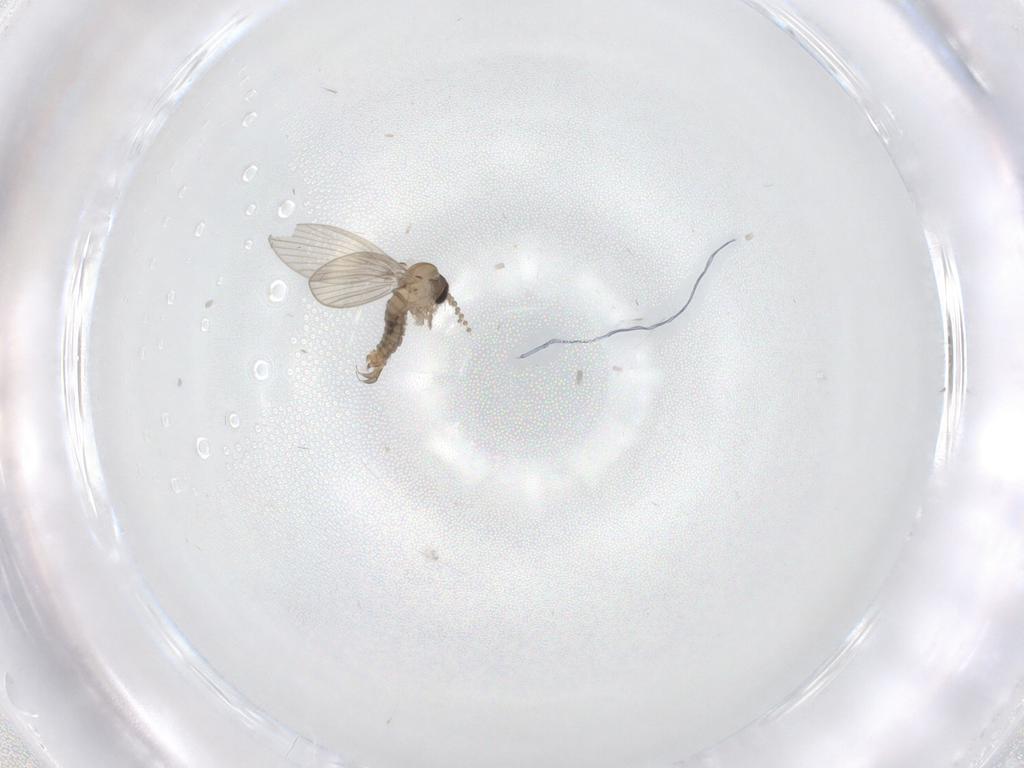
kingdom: Animalia
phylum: Arthropoda
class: Insecta
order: Diptera
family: Psychodidae
